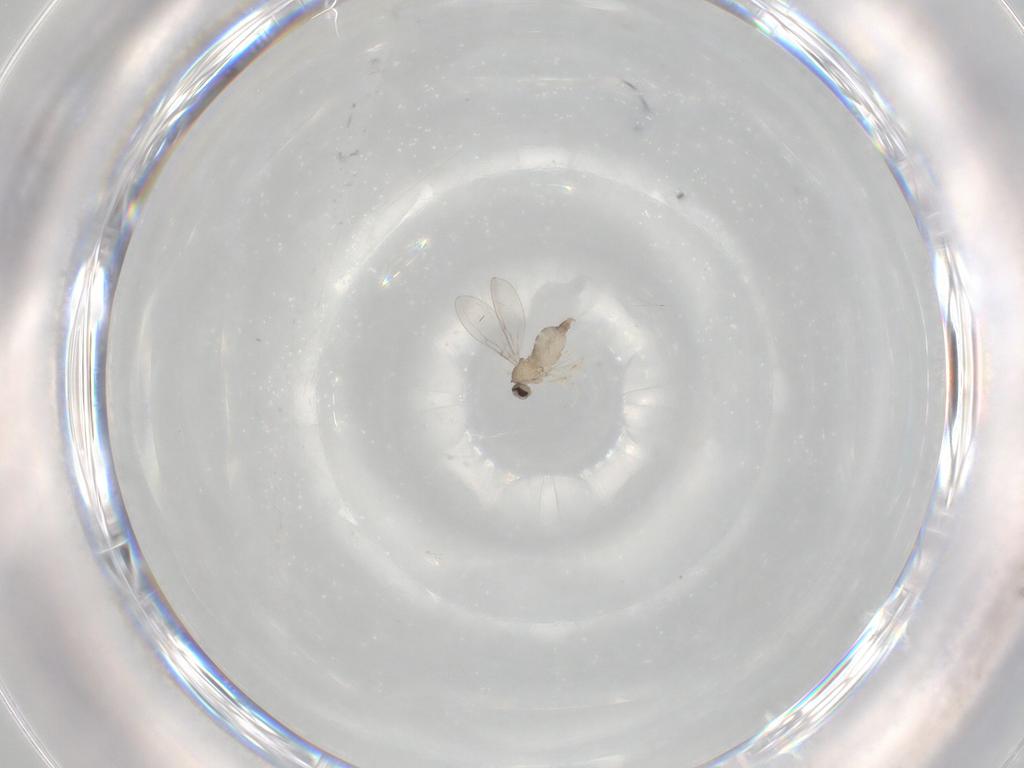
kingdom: Animalia
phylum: Arthropoda
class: Insecta
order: Diptera
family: Cecidomyiidae
